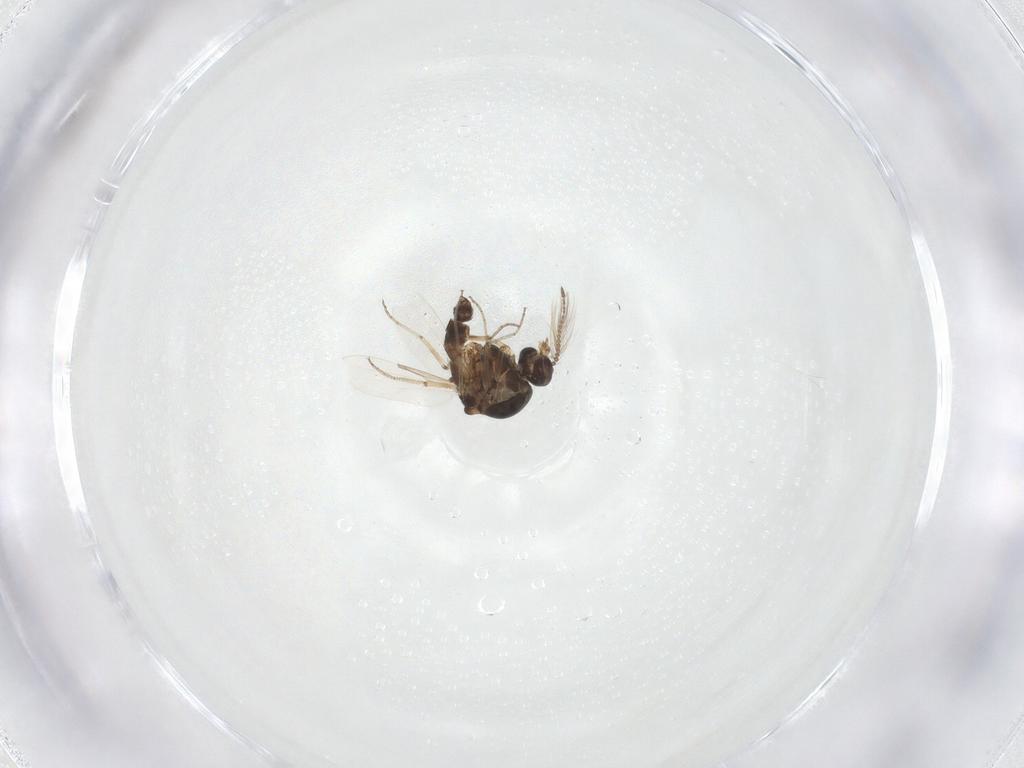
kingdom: Animalia
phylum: Arthropoda
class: Insecta
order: Diptera
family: Ceratopogonidae
